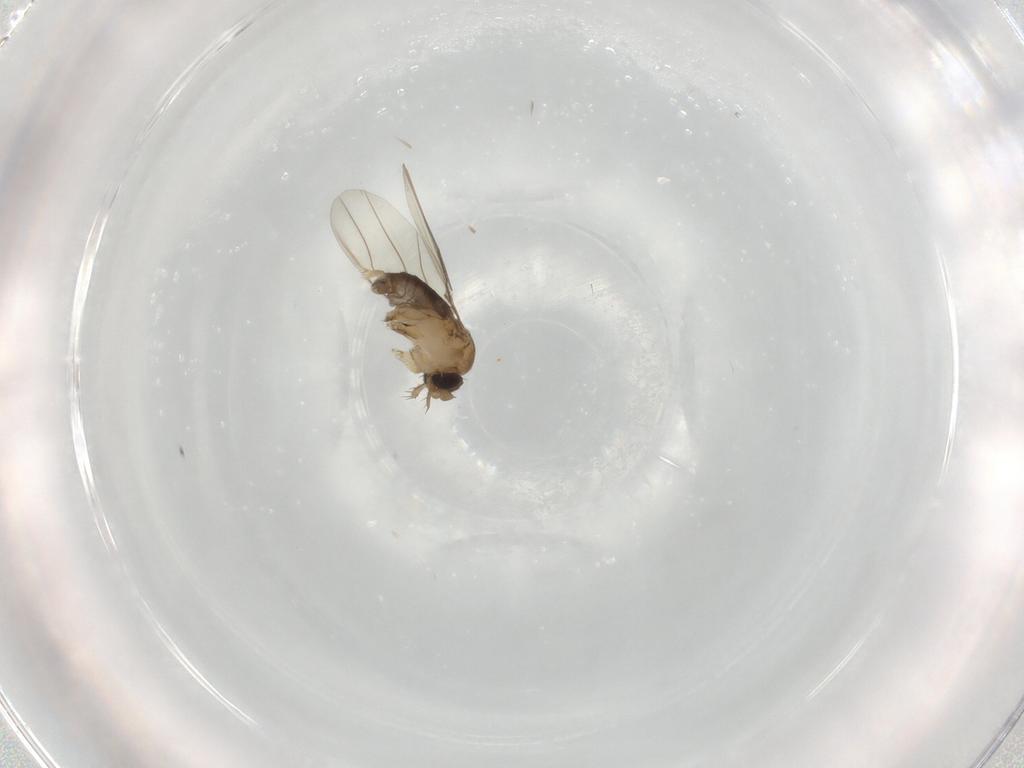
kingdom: Animalia
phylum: Arthropoda
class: Insecta
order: Diptera
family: Phoridae
